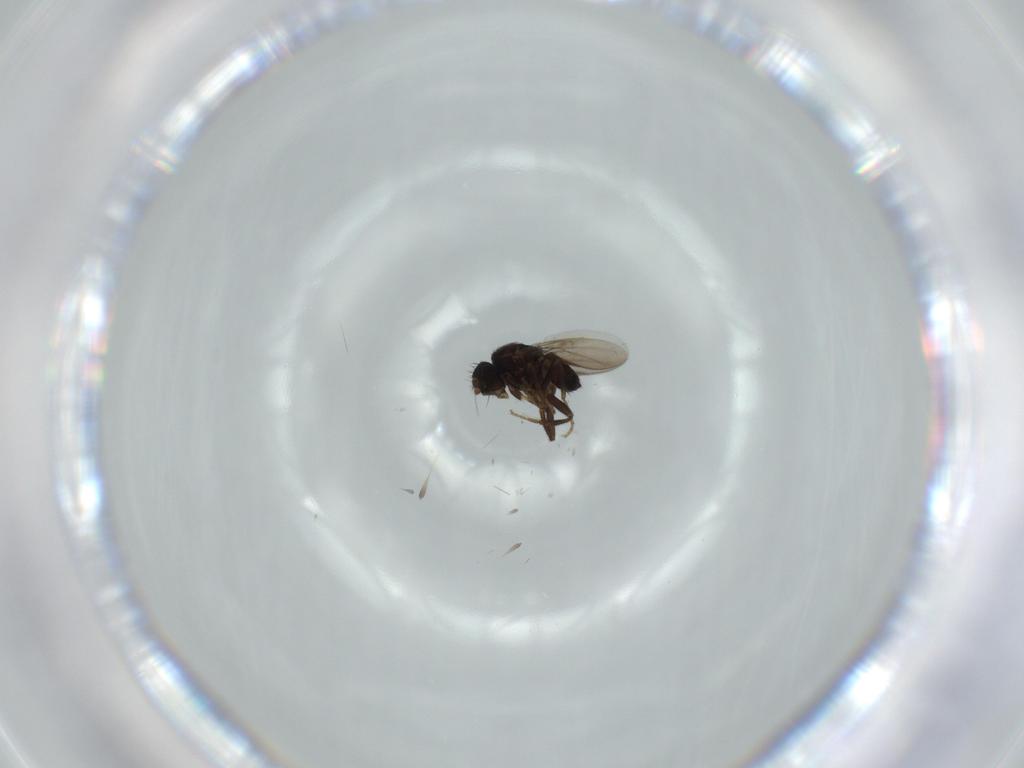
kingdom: Animalia
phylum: Arthropoda
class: Insecta
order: Diptera
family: Sphaeroceridae
